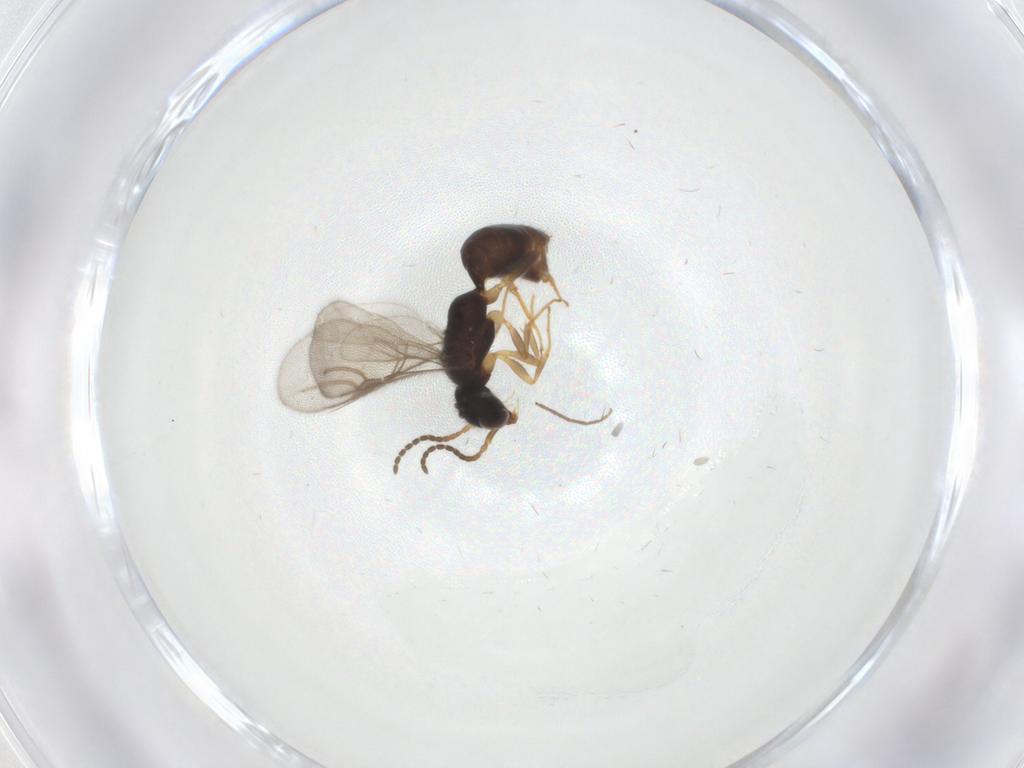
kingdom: Animalia
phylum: Arthropoda
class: Insecta
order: Hymenoptera
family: Bethylidae
